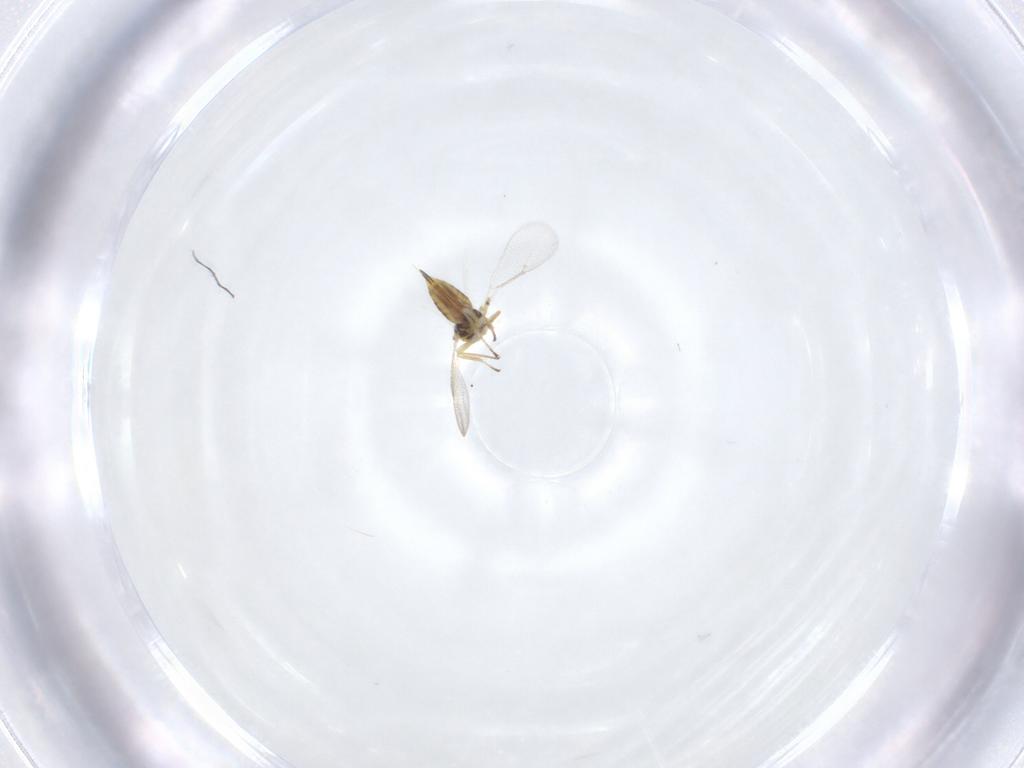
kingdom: Animalia
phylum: Arthropoda
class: Insecta
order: Hymenoptera
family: Eulophidae
